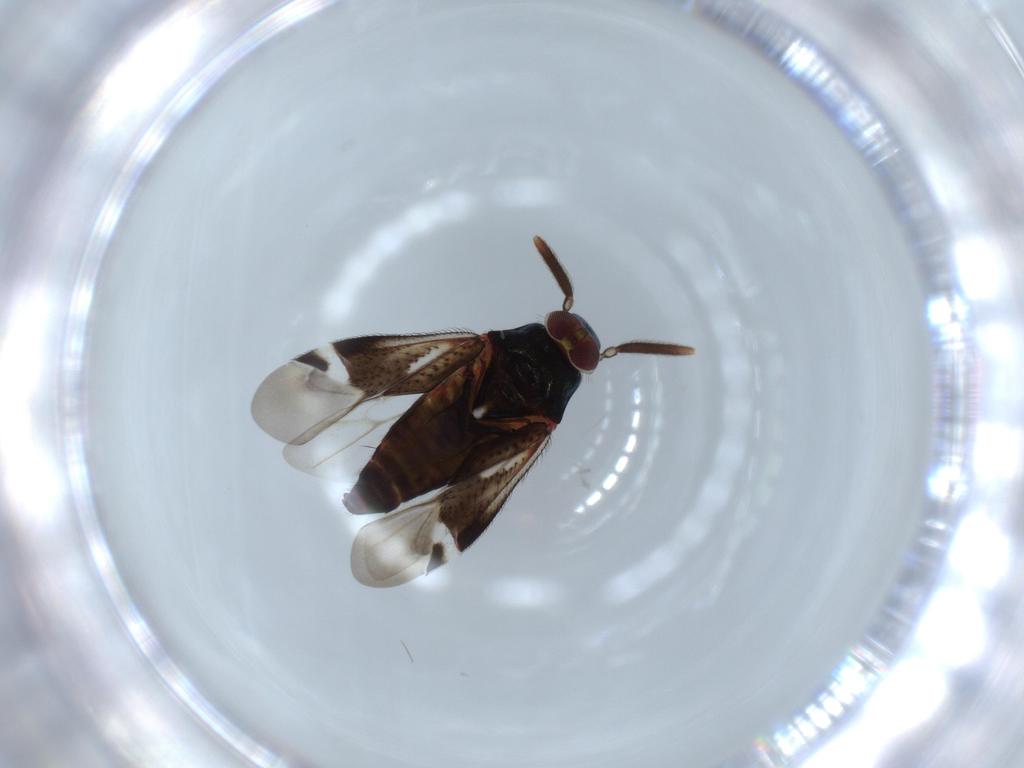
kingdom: Animalia
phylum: Arthropoda
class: Insecta
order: Hemiptera
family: Miridae
